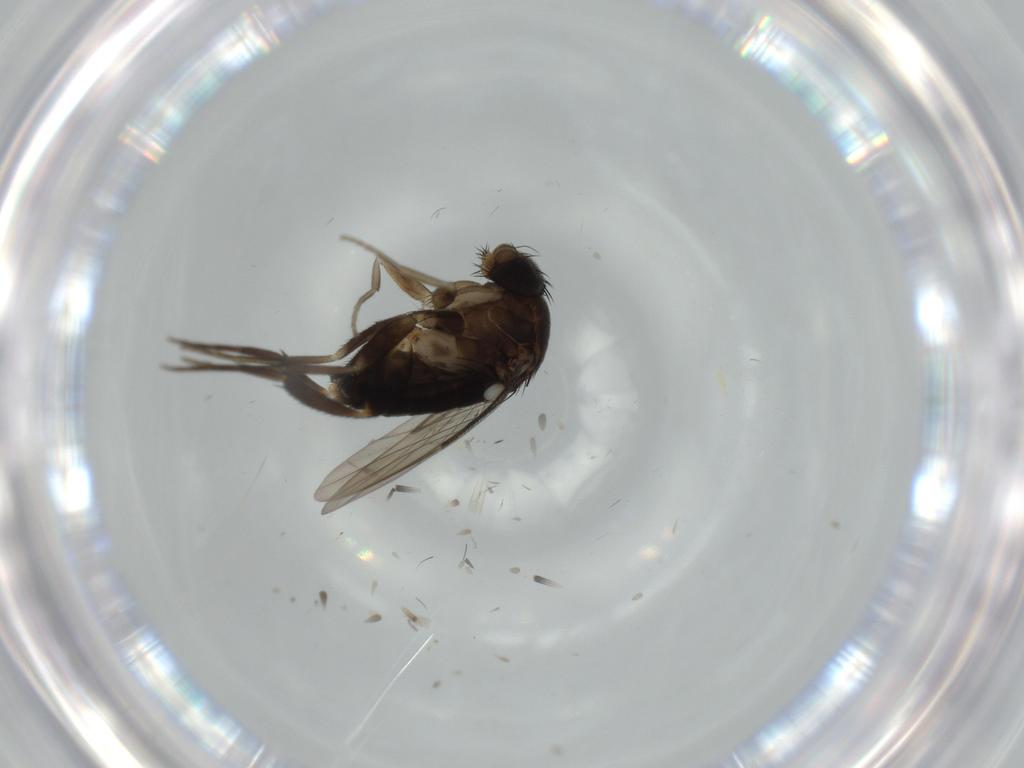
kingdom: Animalia
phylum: Arthropoda
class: Insecta
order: Diptera
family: Phoridae
